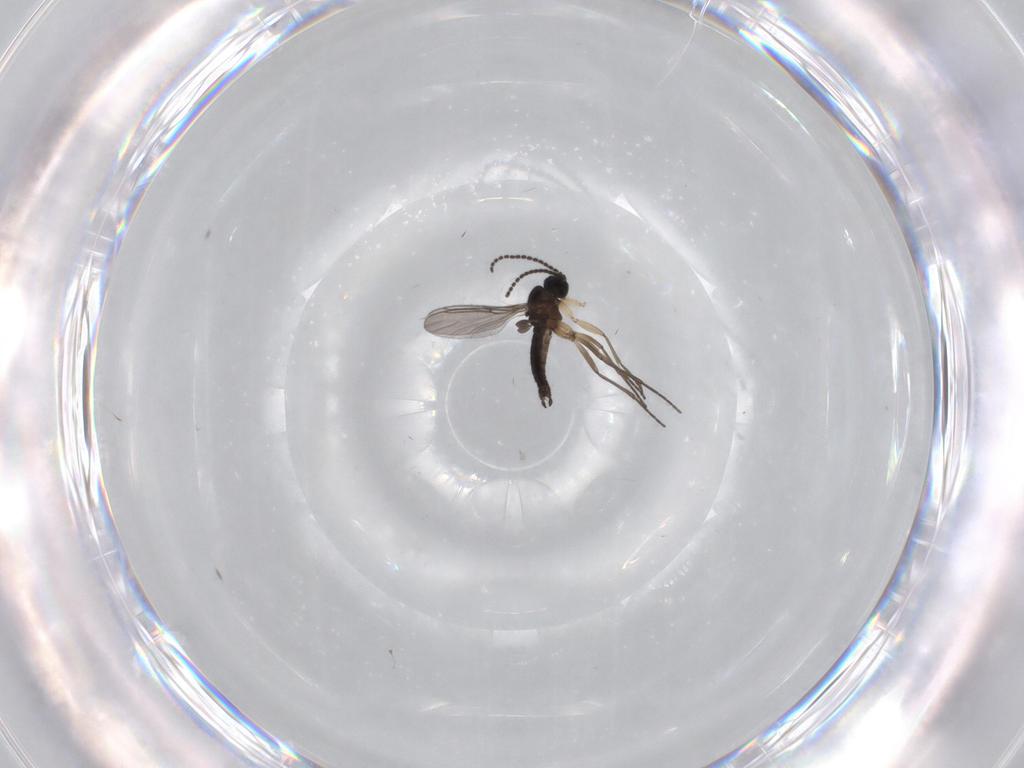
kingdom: Animalia
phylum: Arthropoda
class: Insecta
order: Diptera
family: Sciaridae
